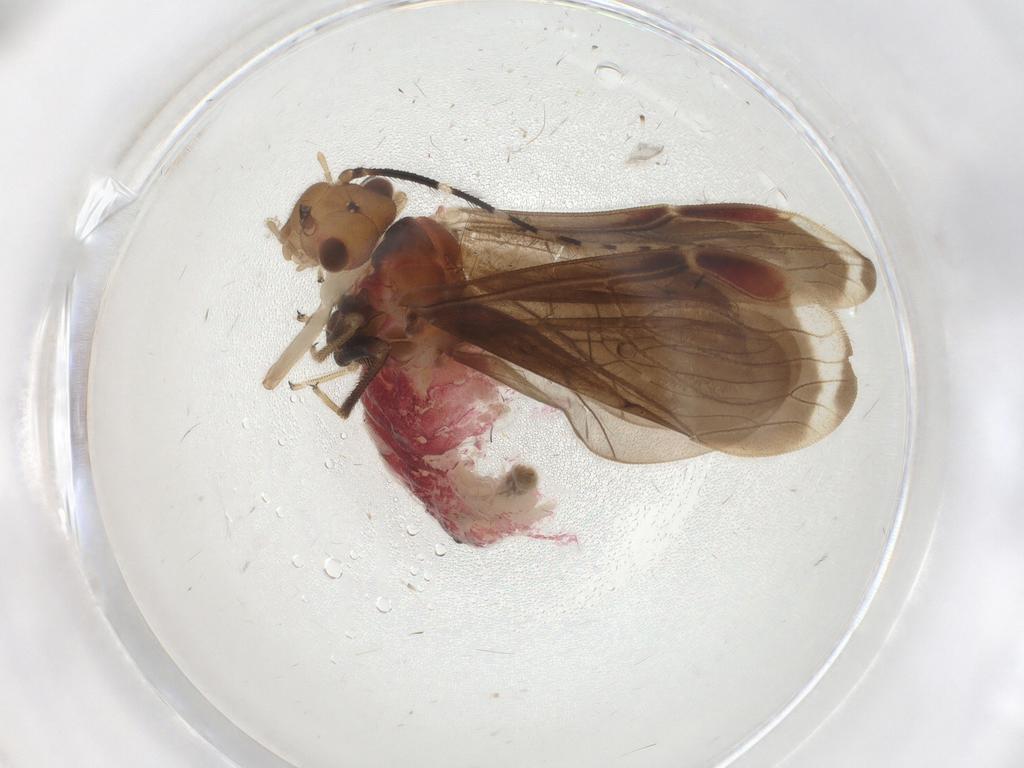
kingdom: Animalia
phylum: Arthropoda
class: Insecta
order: Psocodea
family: Amphipsocidae
